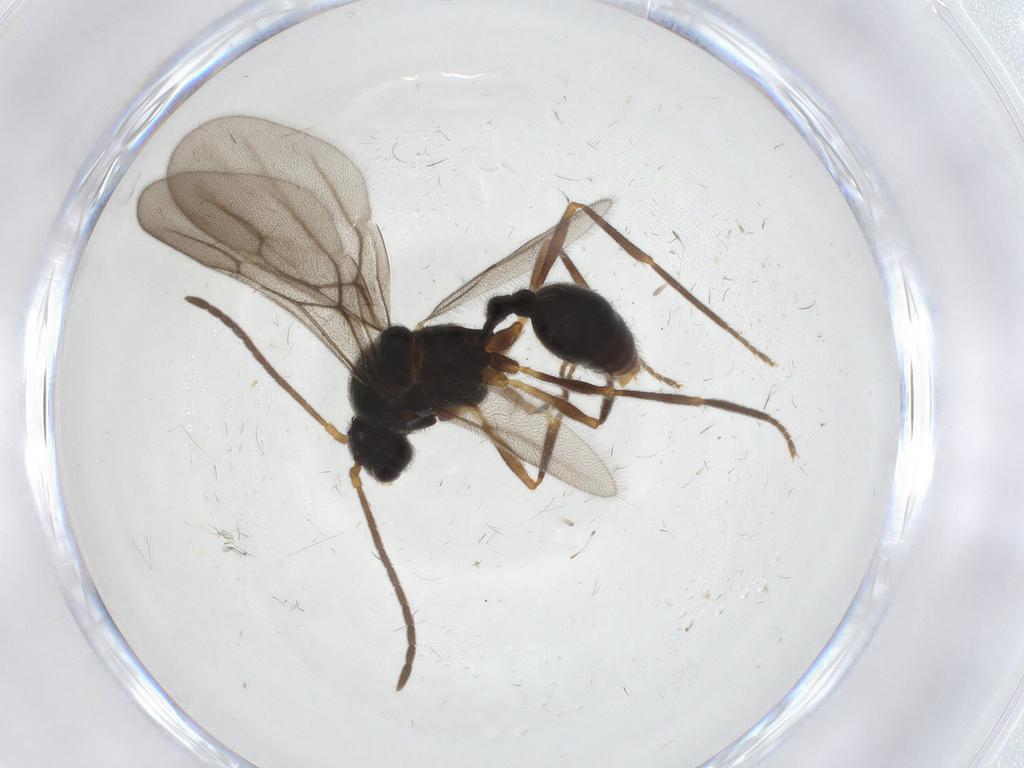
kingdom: Animalia
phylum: Arthropoda
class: Insecta
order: Hymenoptera
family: Formicidae
